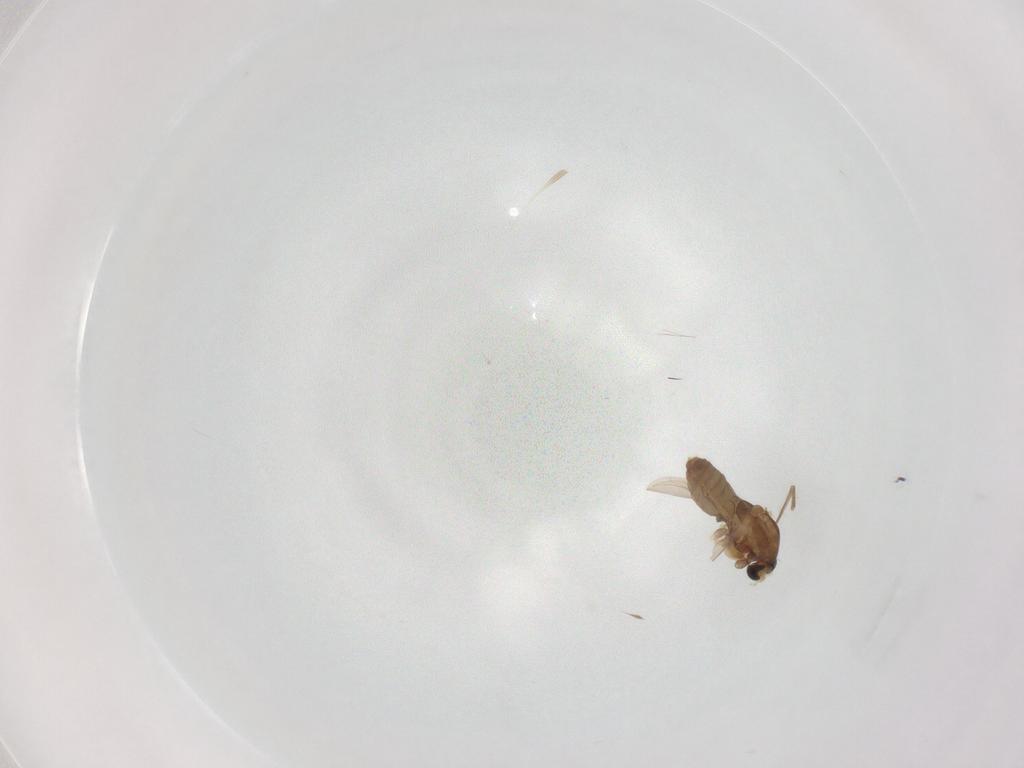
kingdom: Animalia
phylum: Arthropoda
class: Insecta
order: Diptera
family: Chironomidae
